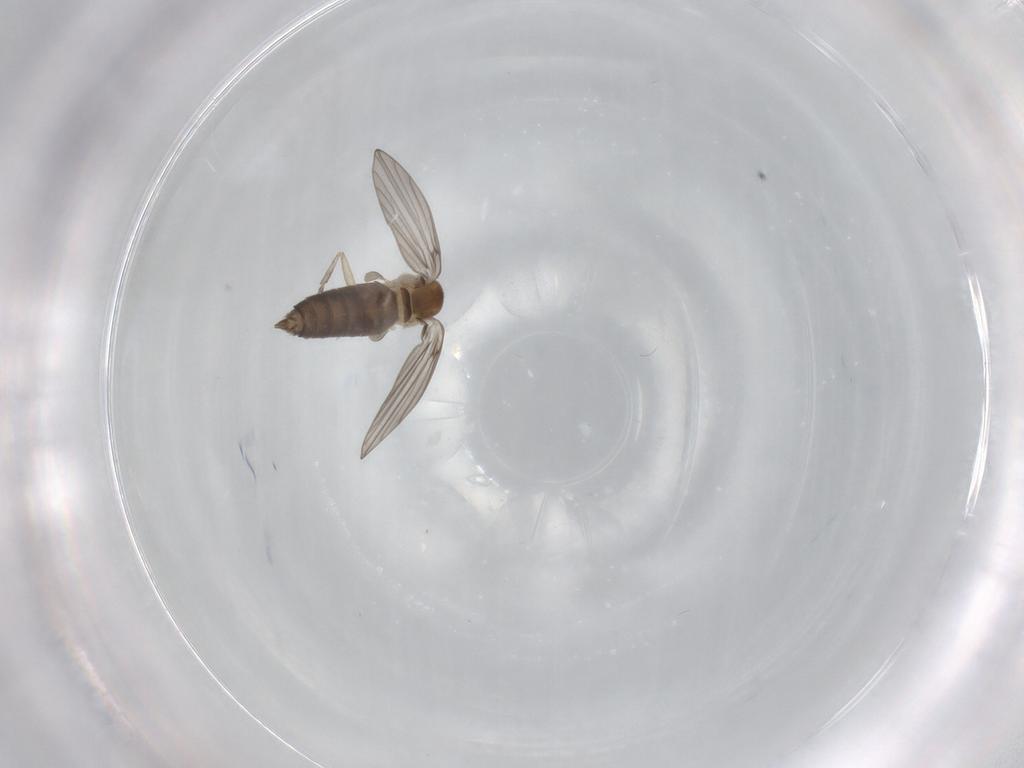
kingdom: Animalia
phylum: Arthropoda
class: Insecta
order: Diptera
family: Psychodidae
